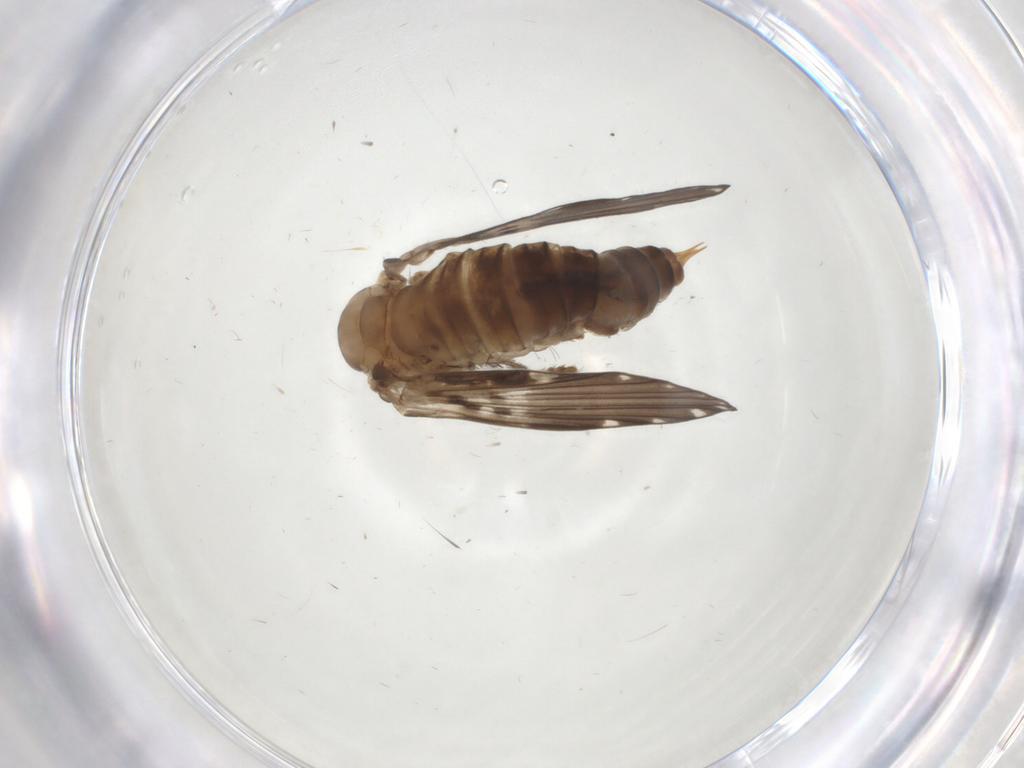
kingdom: Animalia
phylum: Arthropoda
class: Insecta
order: Diptera
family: Psychodidae
